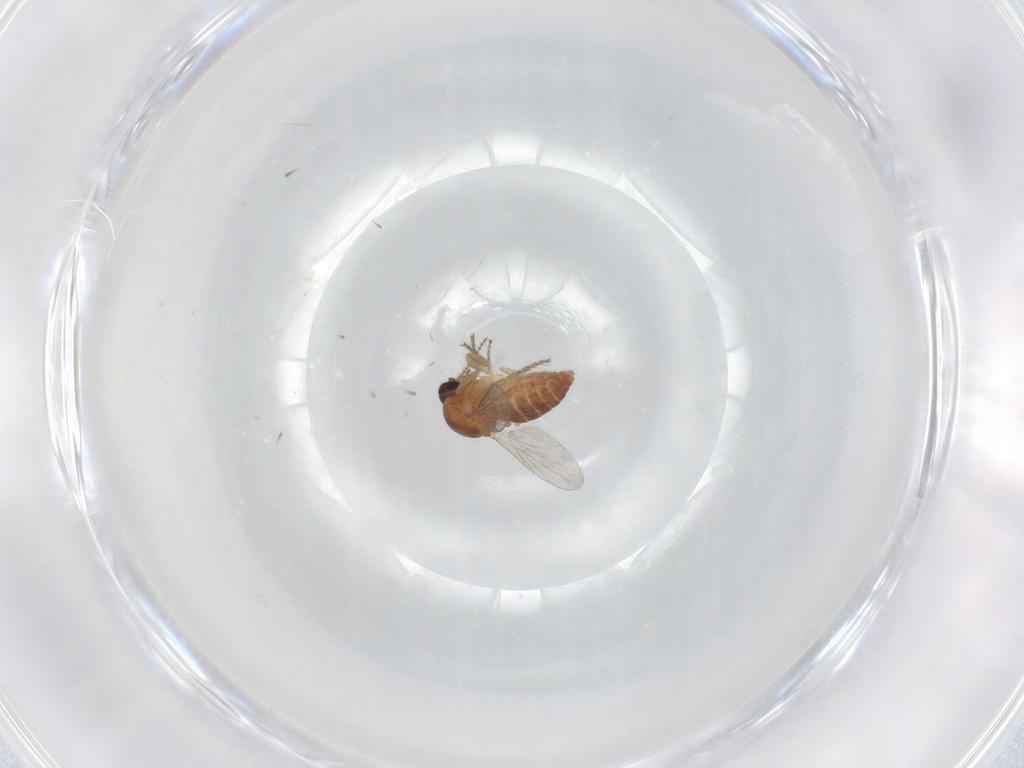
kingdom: Animalia
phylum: Arthropoda
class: Insecta
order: Diptera
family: Ceratopogonidae
